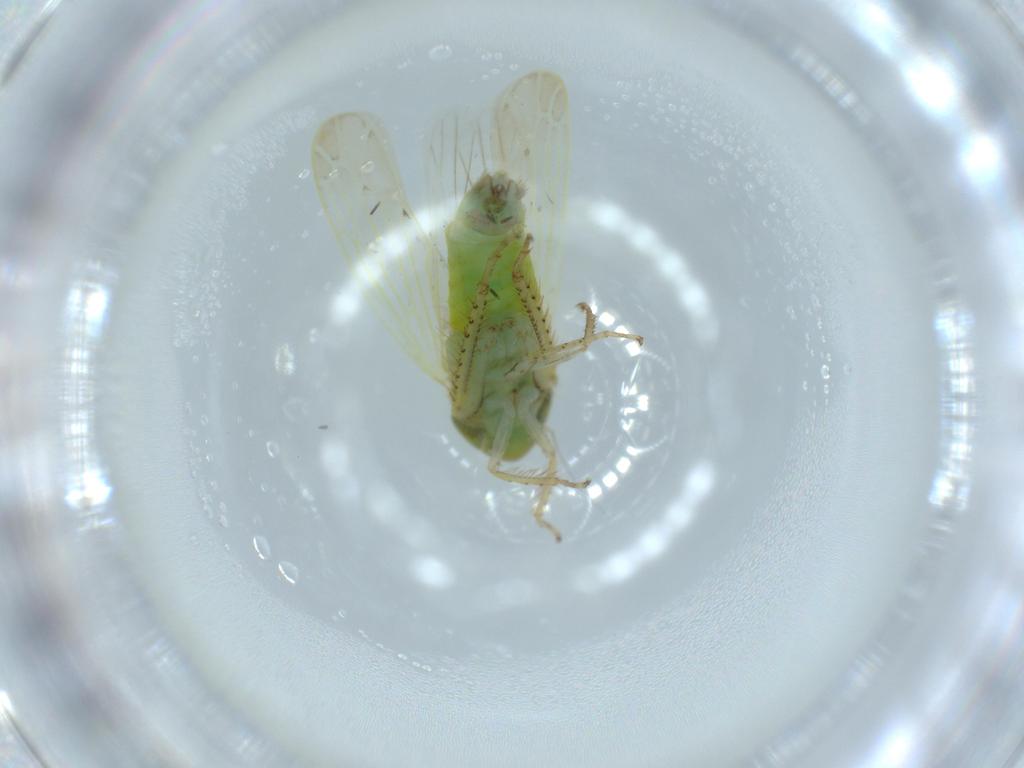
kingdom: Animalia
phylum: Arthropoda
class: Insecta
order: Hemiptera
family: Cicadellidae
